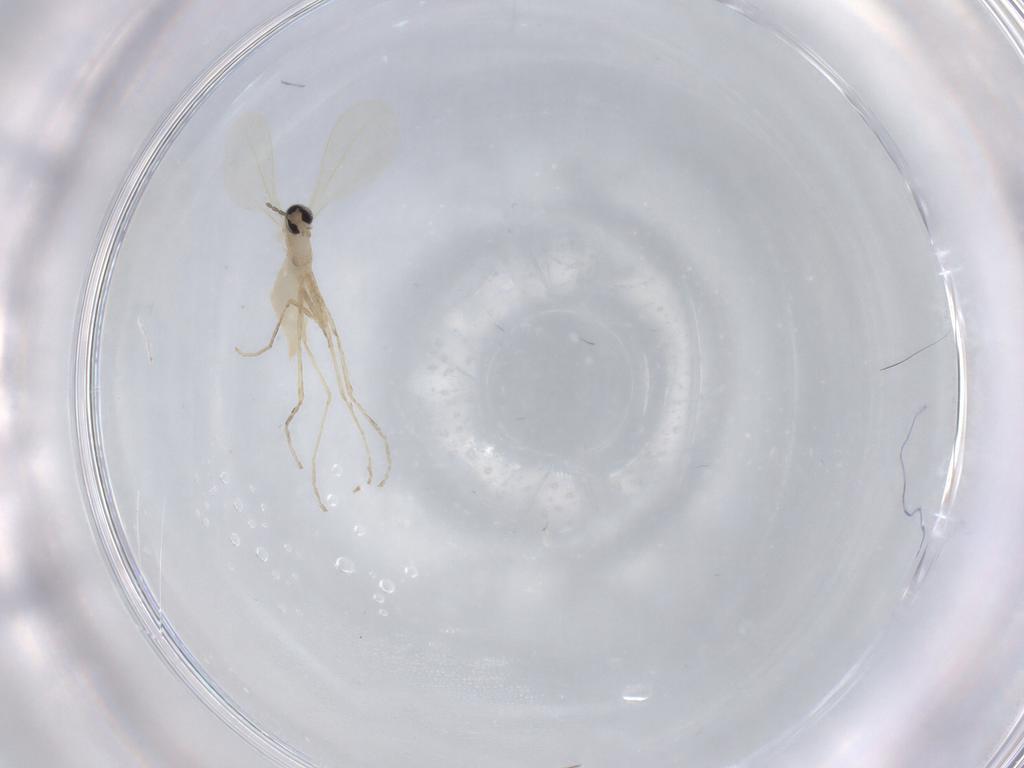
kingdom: Animalia
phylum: Arthropoda
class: Insecta
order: Diptera
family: Cecidomyiidae
